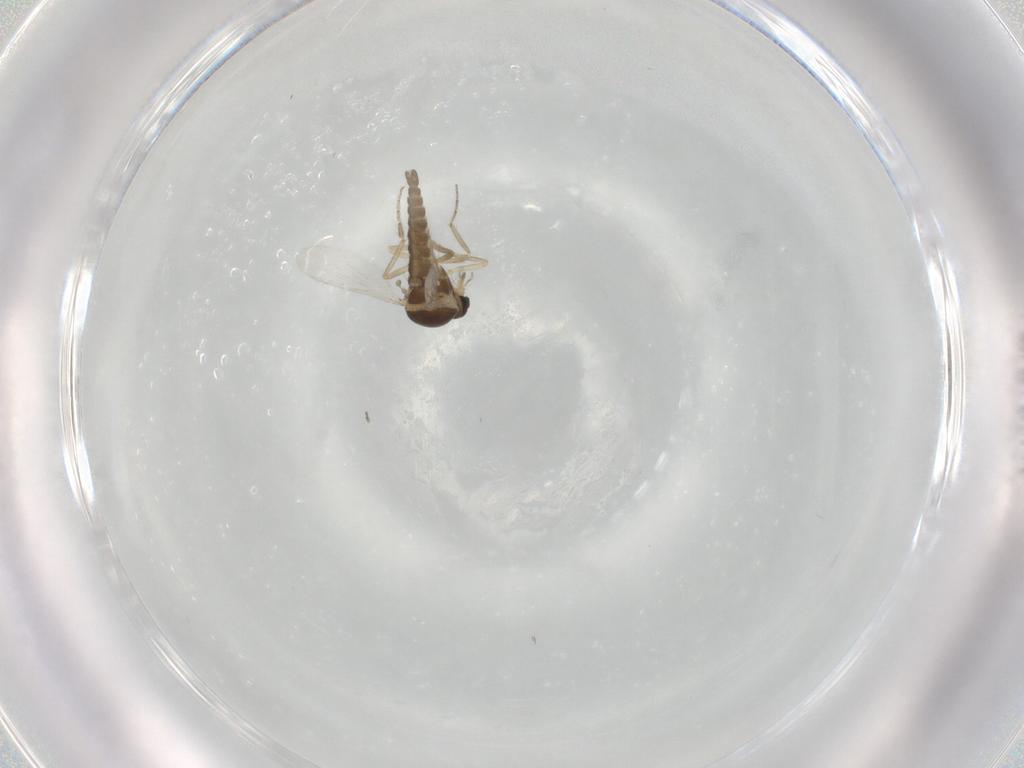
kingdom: Animalia
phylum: Arthropoda
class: Insecta
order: Diptera
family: Ceratopogonidae
